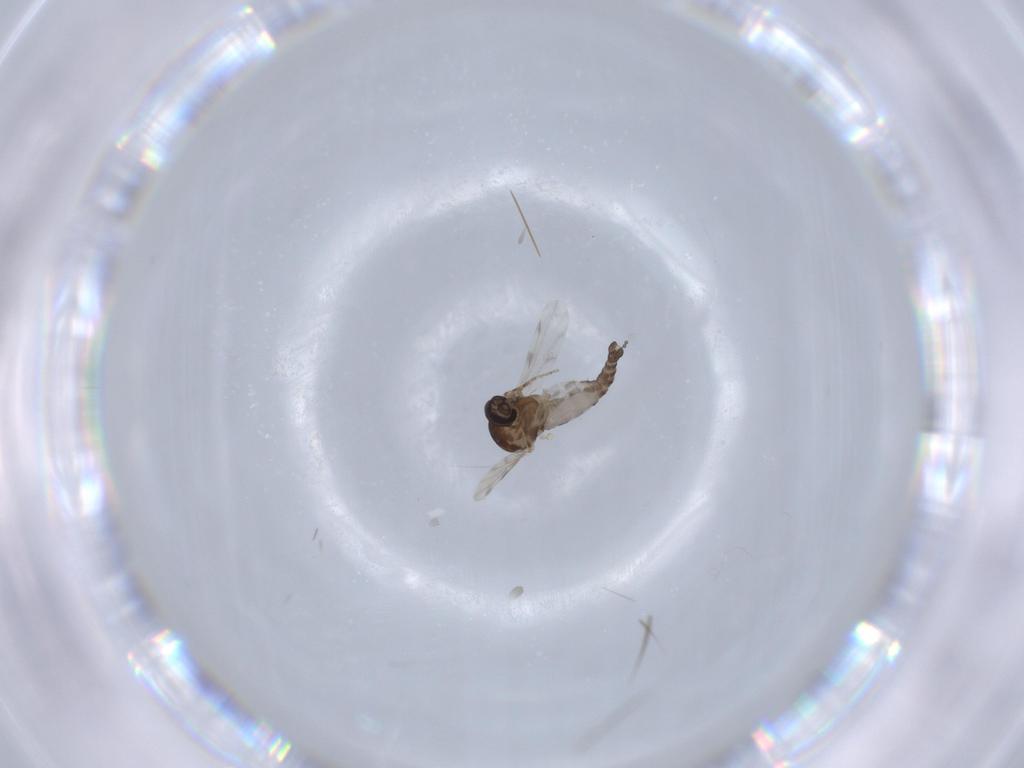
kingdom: Animalia
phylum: Arthropoda
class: Insecta
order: Diptera
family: Ceratopogonidae
